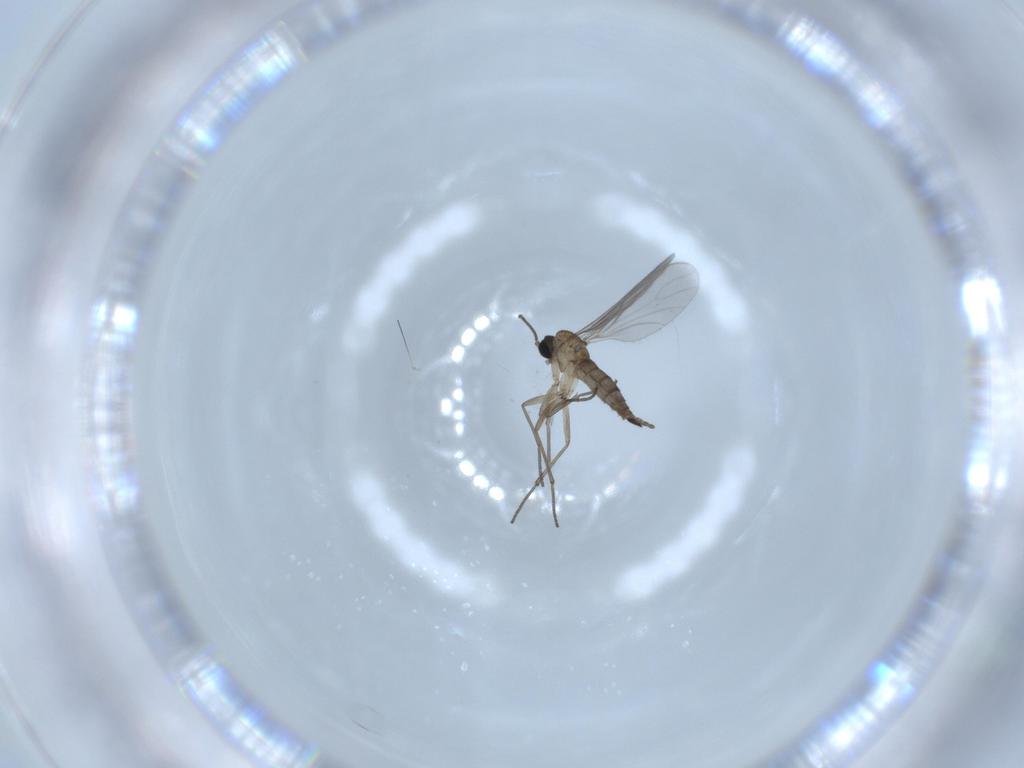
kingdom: Animalia
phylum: Arthropoda
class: Insecta
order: Diptera
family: Sciaridae
